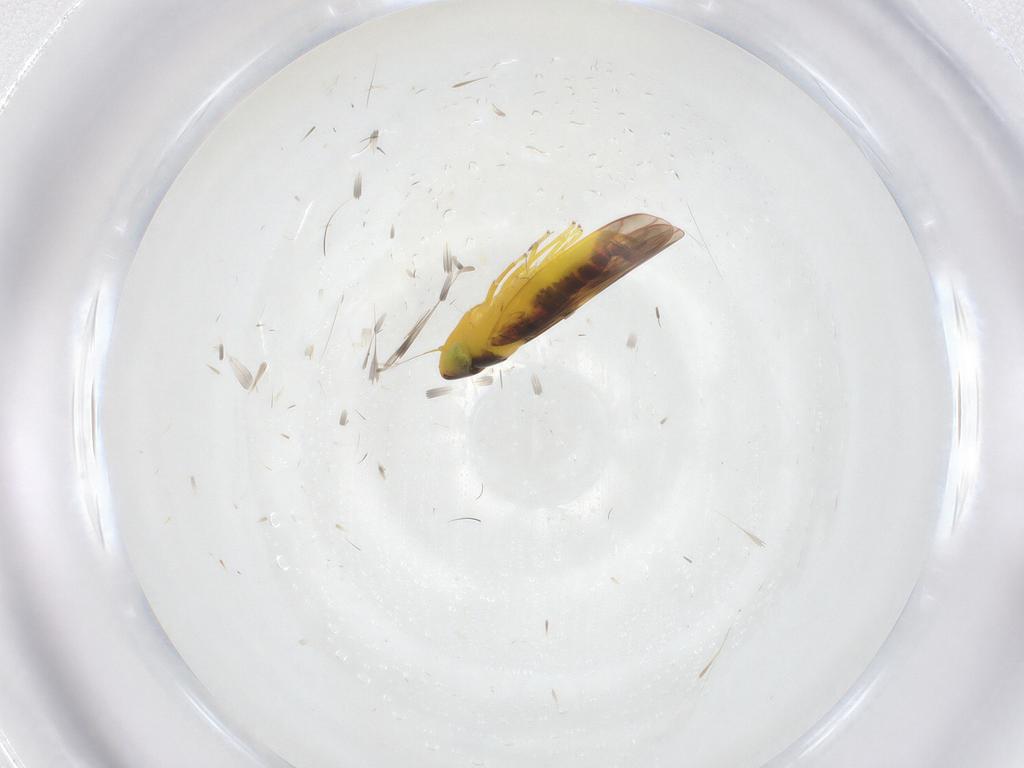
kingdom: Animalia
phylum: Arthropoda
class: Insecta
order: Hemiptera
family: Cicadellidae
